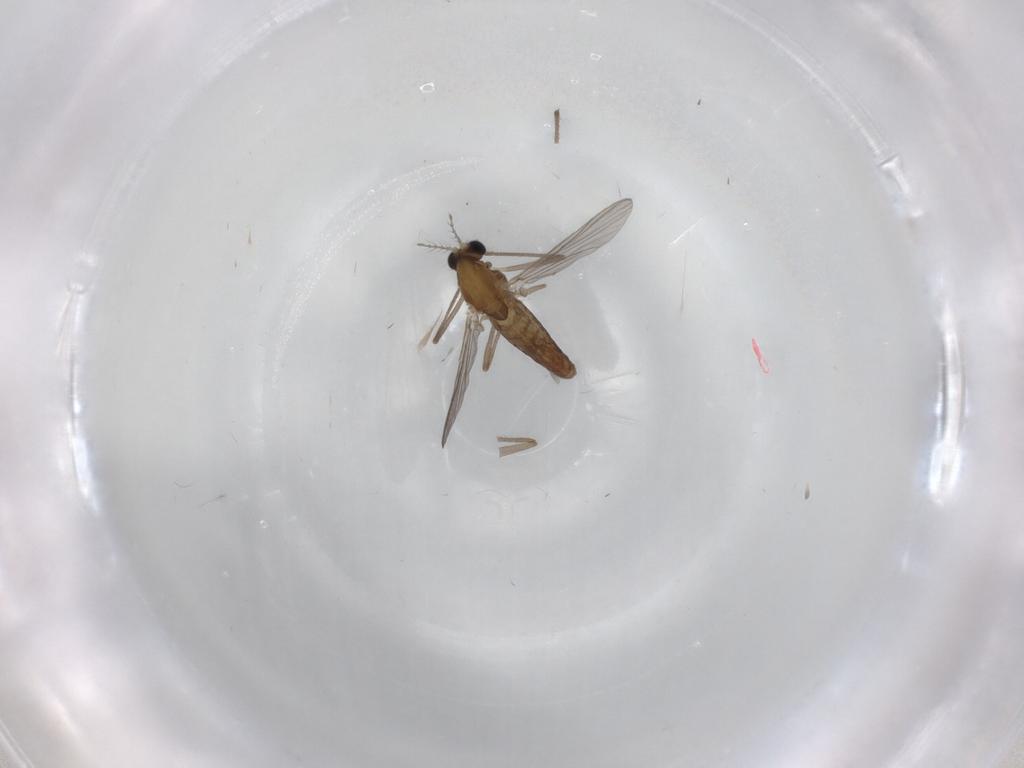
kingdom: Animalia
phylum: Arthropoda
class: Insecta
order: Diptera
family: Chironomidae
